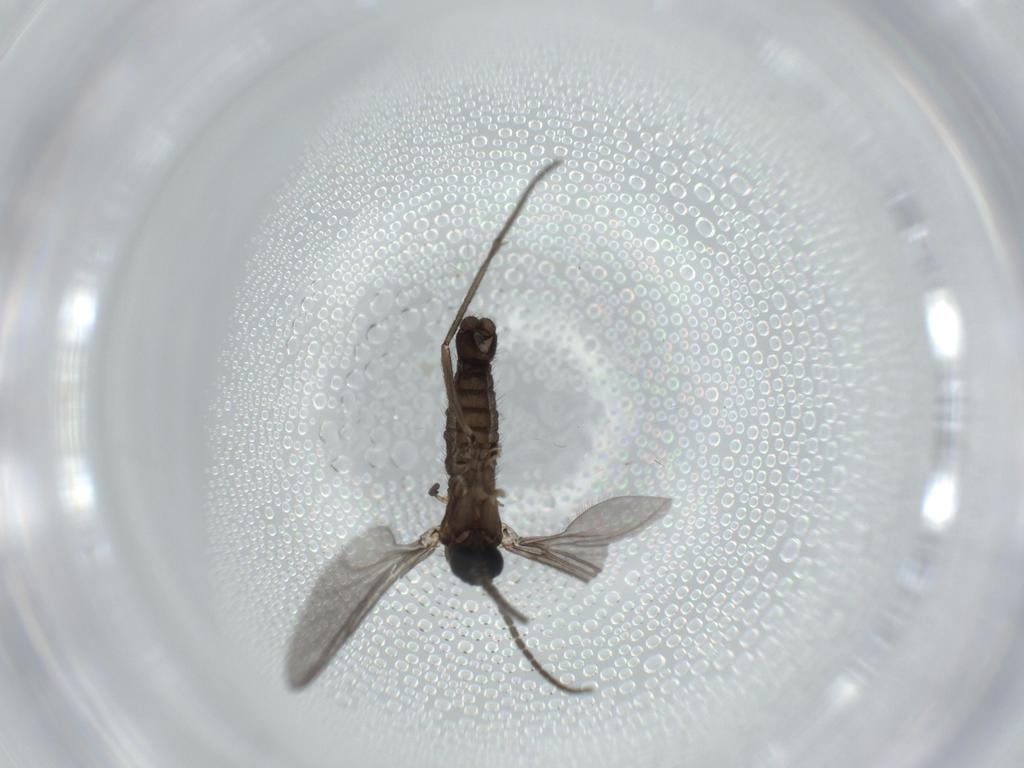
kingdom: Animalia
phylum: Arthropoda
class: Insecta
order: Diptera
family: Sciaridae
